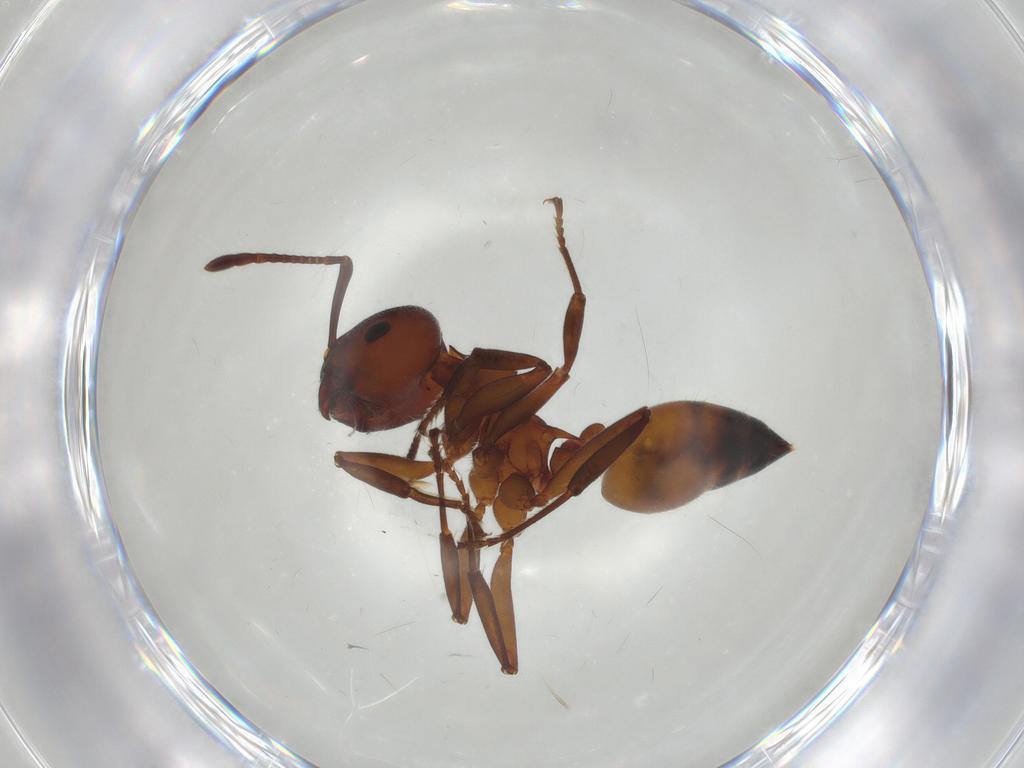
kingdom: Animalia
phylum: Arthropoda
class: Insecta
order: Hymenoptera
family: Formicidae
